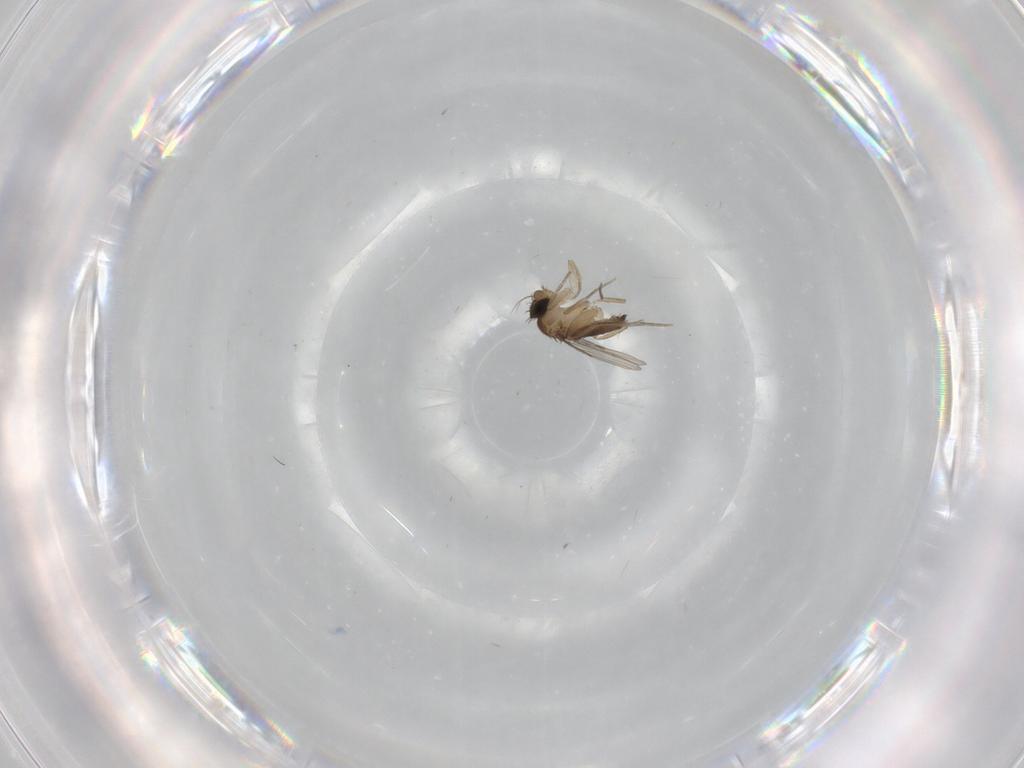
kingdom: Animalia
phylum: Arthropoda
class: Insecta
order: Diptera
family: Phoridae
